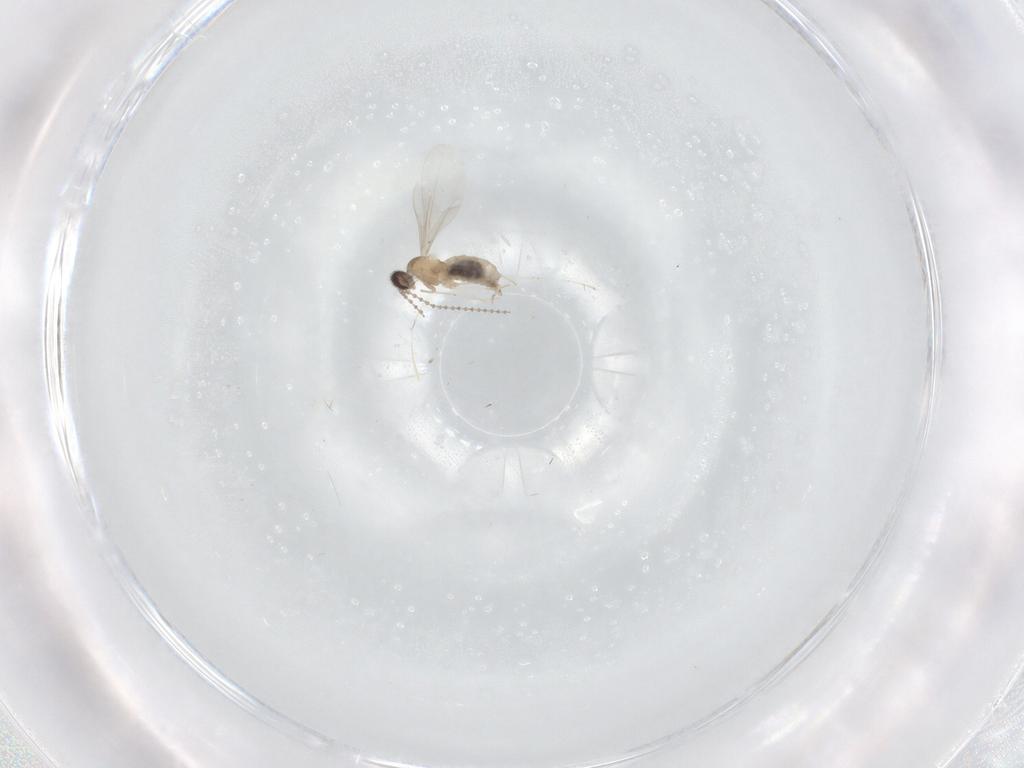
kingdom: Animalia
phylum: Arthropoda
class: Insecta
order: Diptera
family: Cecidomyiidae
